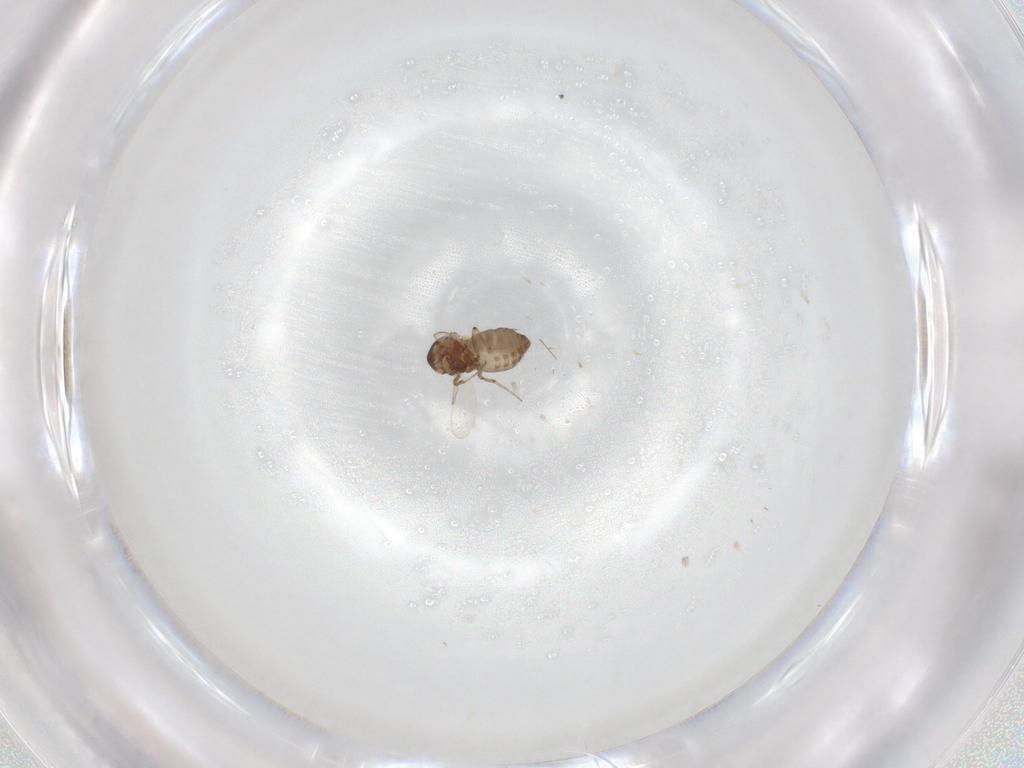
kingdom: Animalia
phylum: Arthropoda
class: Insecta
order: Diptera
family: Ceratopogonidae
